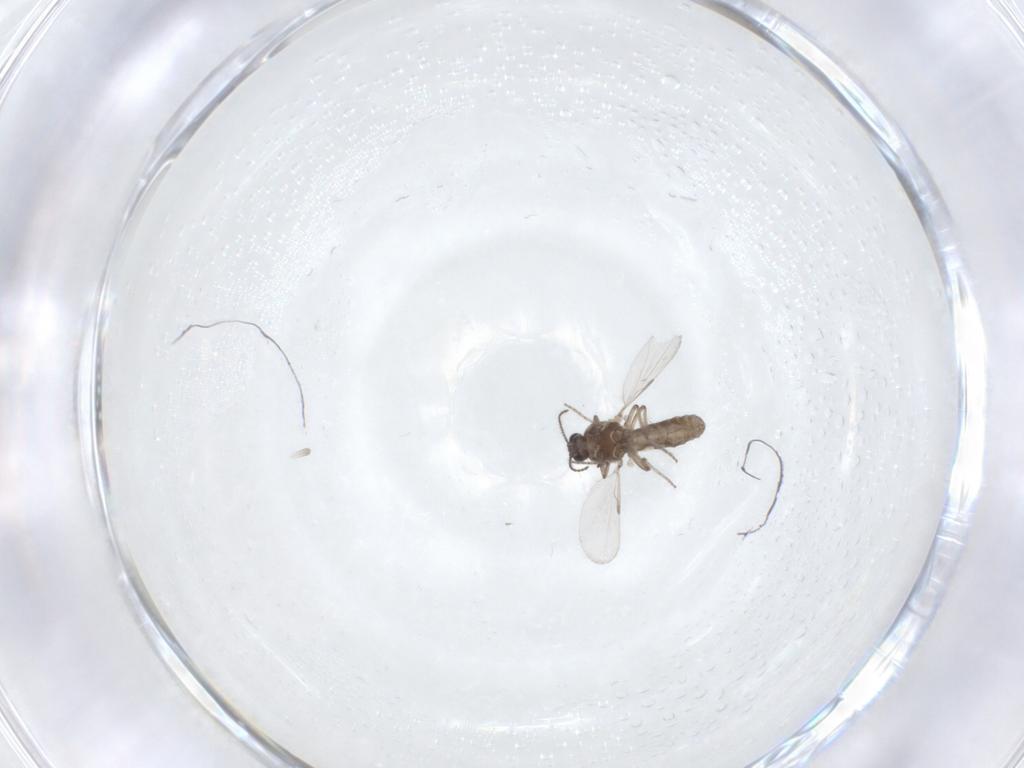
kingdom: Animalia
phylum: Arthropoda
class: Insecta
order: Diptera
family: Ceratopogonidae
